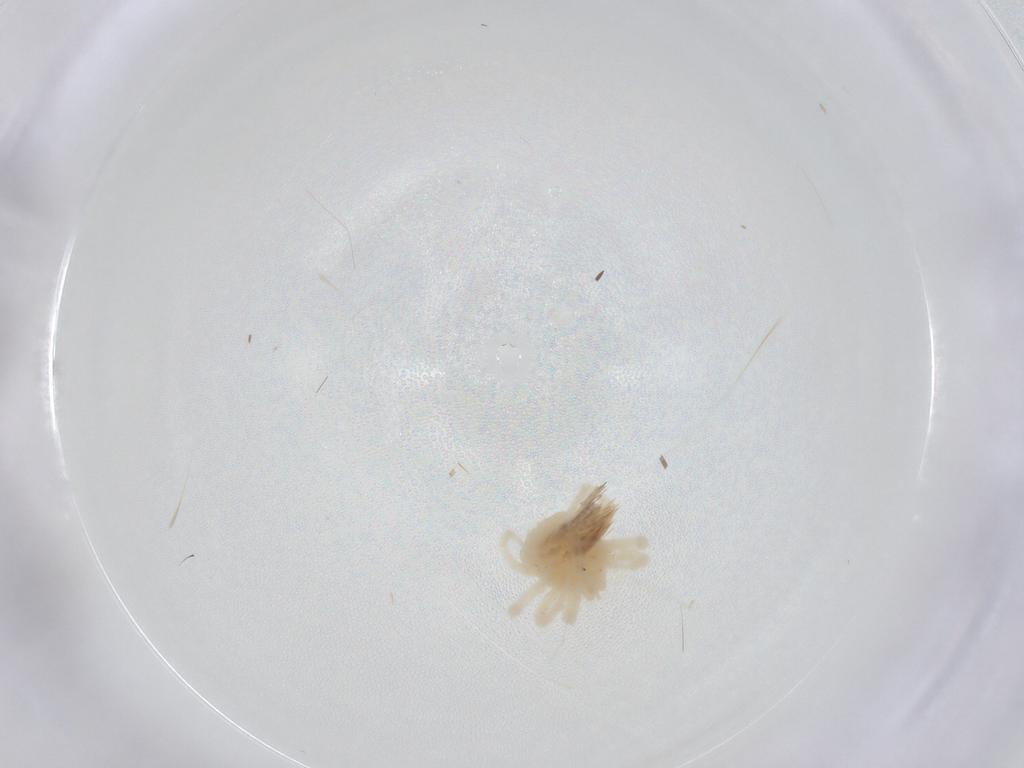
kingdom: Animalia
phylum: Arthropoda
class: Arachnida
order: Trombidiformes
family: Anystidae
